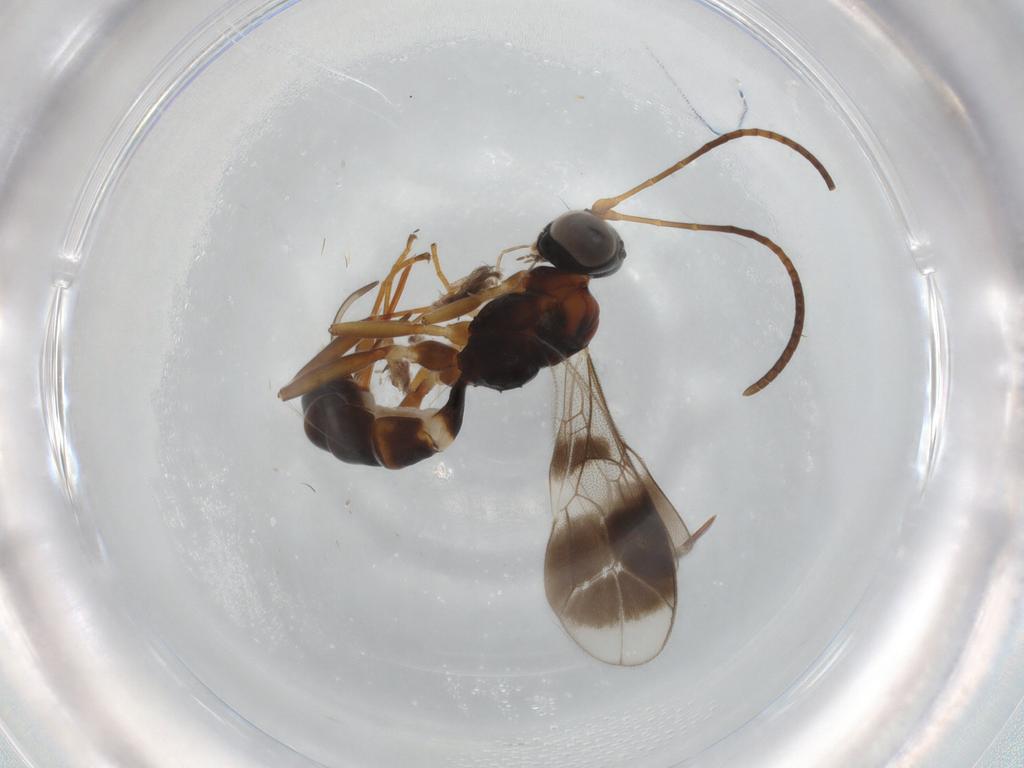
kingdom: Animalia
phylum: Arthropoda
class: Insecta
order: Hymenoptera
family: Ichneumonidae
